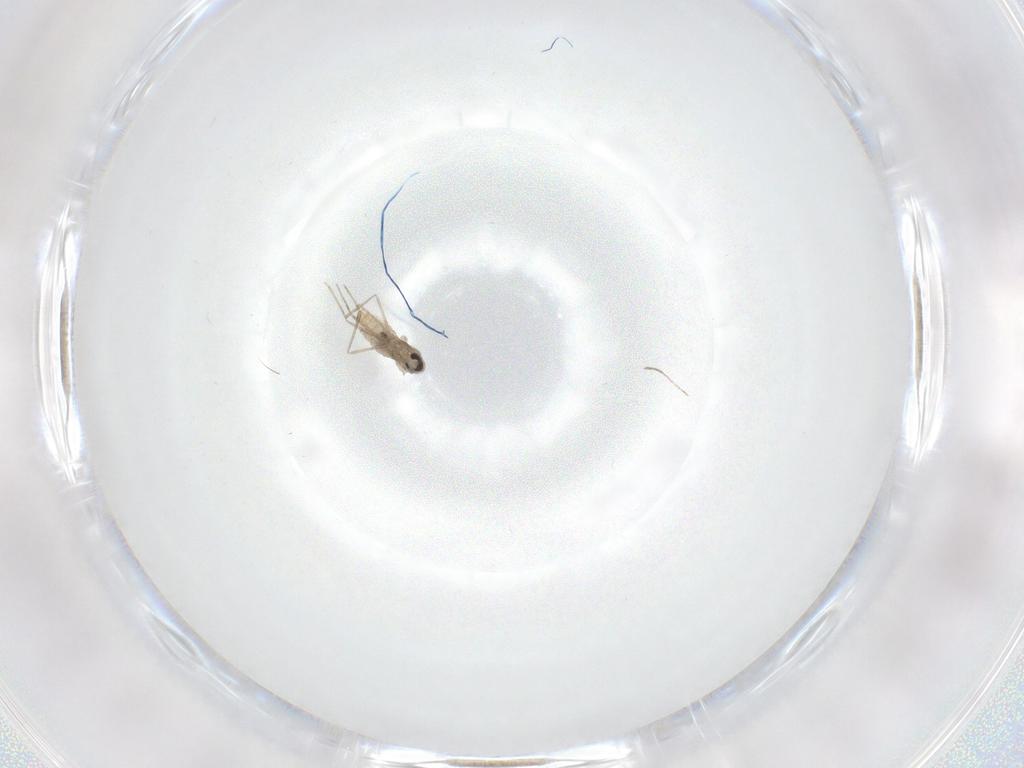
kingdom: Animalia
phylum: Arthropoda
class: Insecta
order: Diptera
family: Cecidomyiidae
